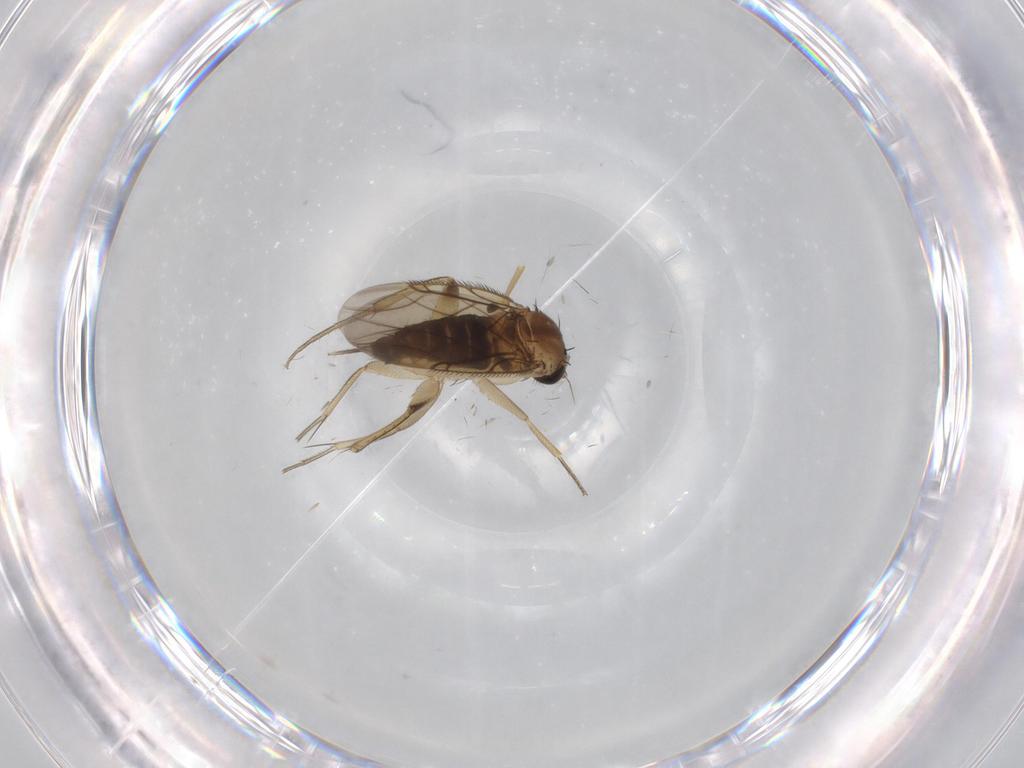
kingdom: Animalia
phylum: Arthropoda
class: Insecta
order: Diptera
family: Phoridae
